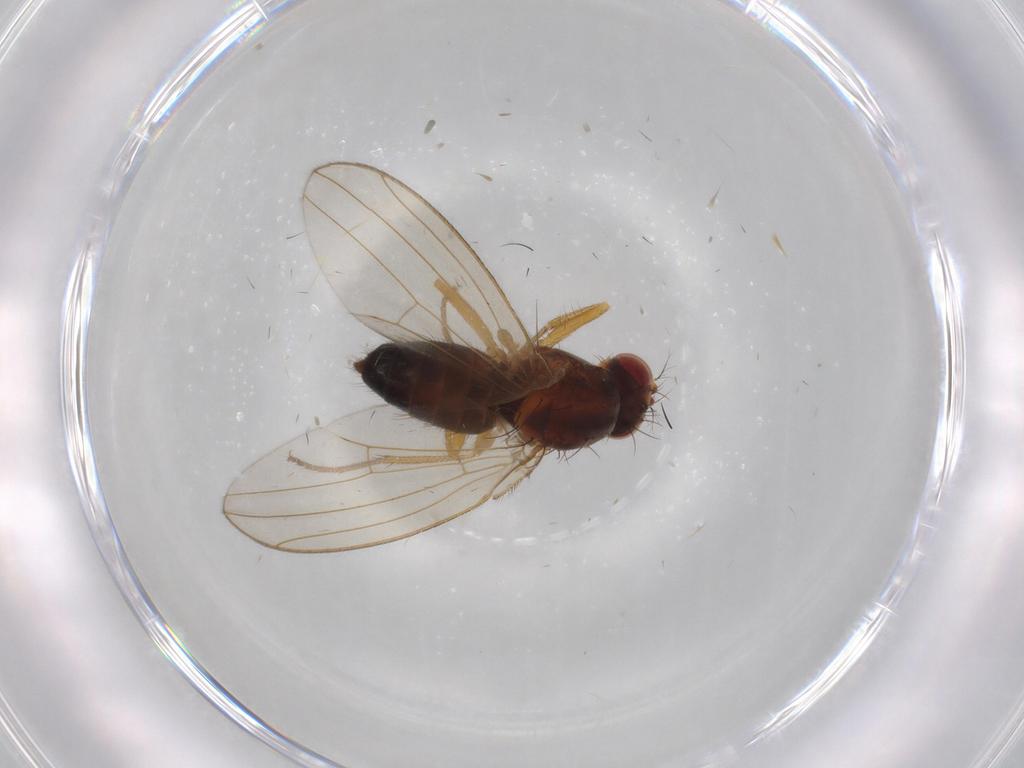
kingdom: Animalia
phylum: Arthropoda
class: Insecta
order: Diptera
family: Drosophilidae
